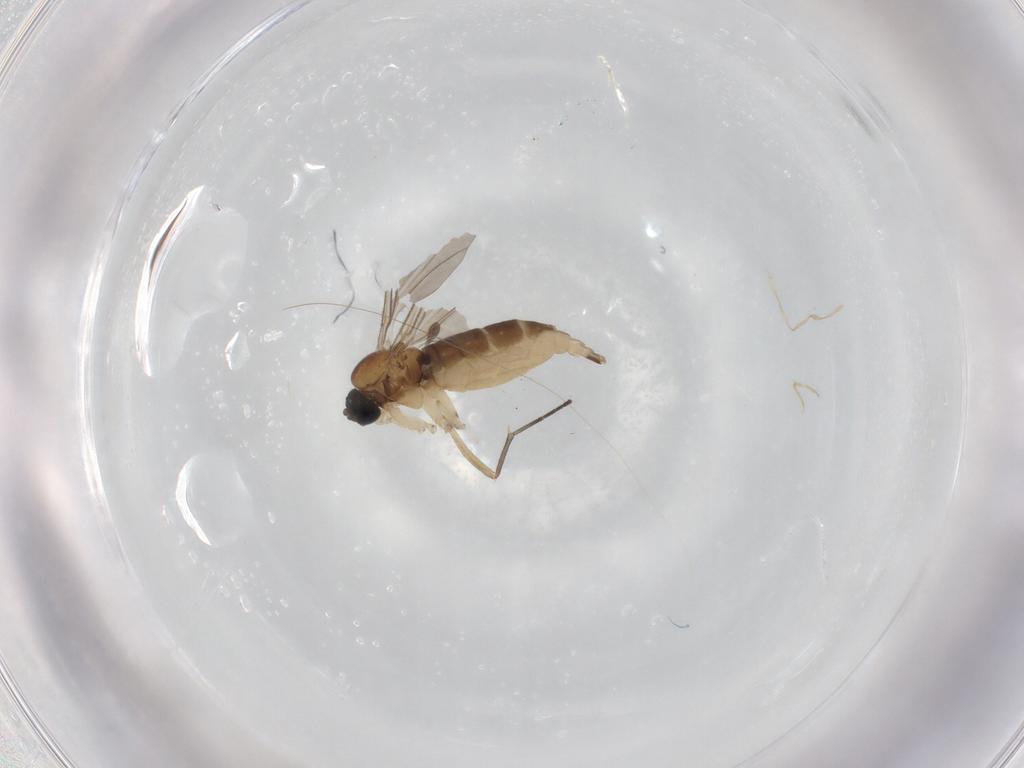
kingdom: Animalia
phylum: Arthropoda
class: Insecta
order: Diptera
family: Sciaridae
